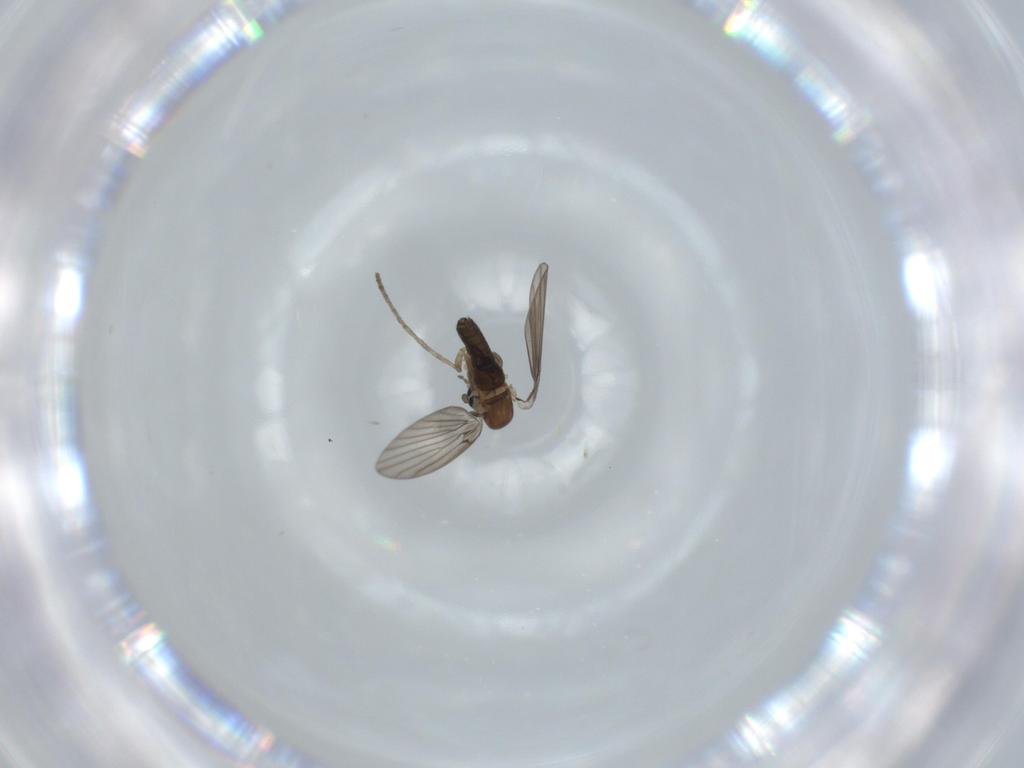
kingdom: Animalia
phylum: Arthropoda
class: Insecta
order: Diptera
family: Psychodidae
